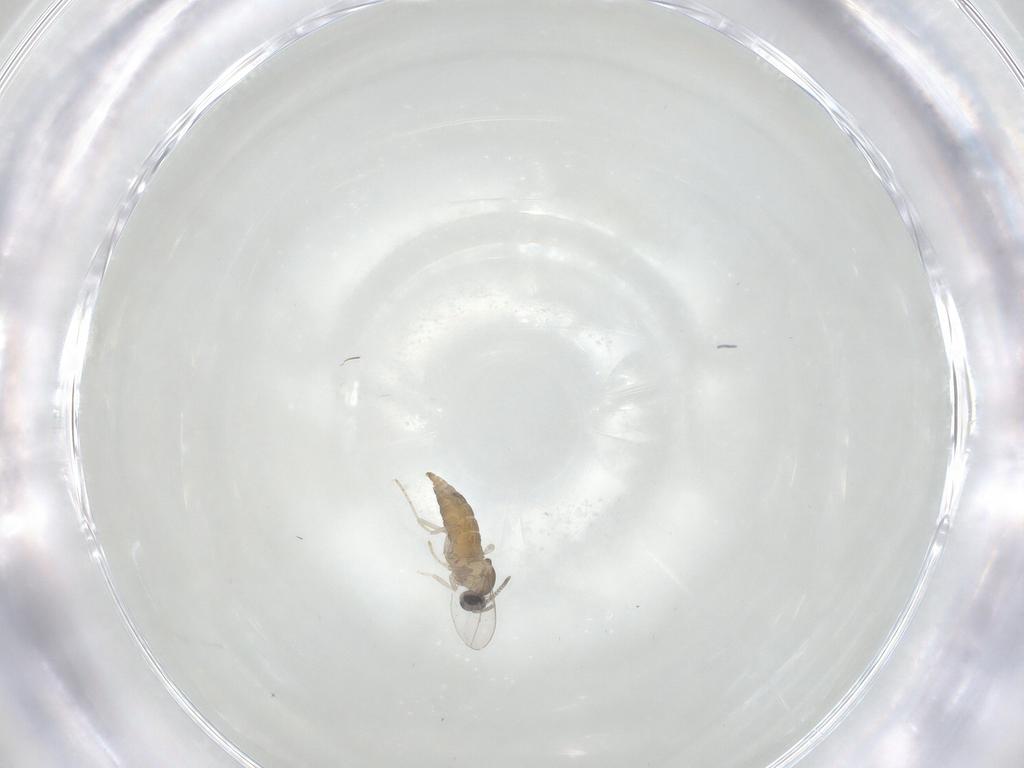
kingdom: Animalia
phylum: Arthropoda
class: Insecta
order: Diptera
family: Cecidomyiidae
